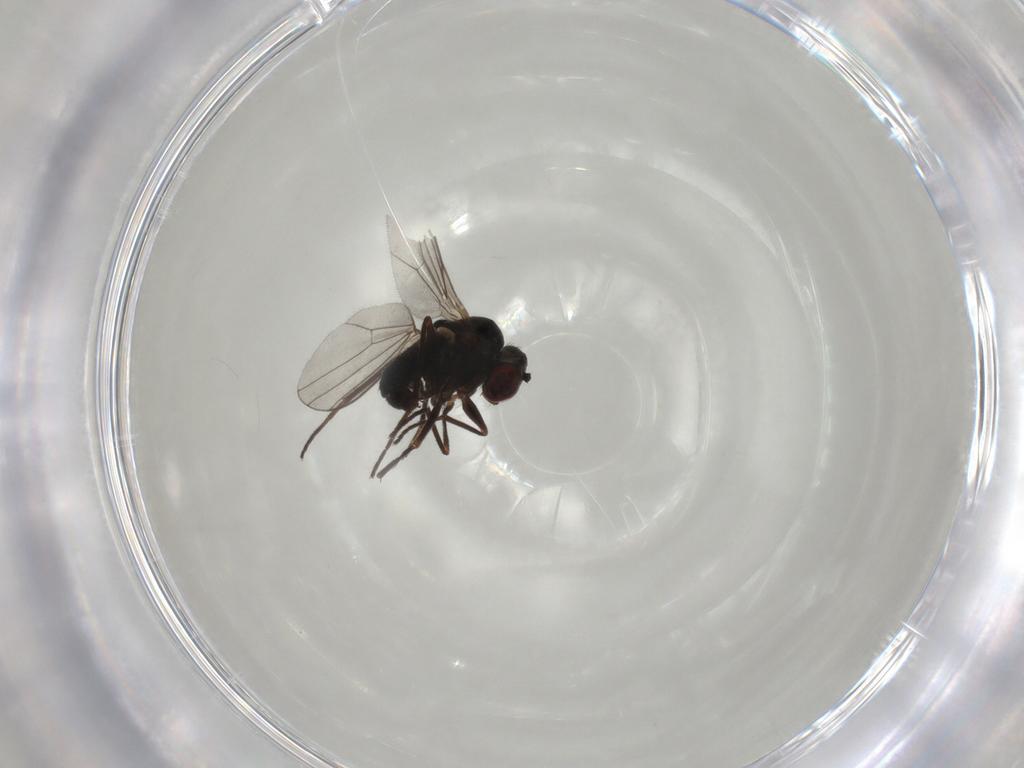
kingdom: Animalia
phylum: Arthropoda
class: Insecta
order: Diptera
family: Dolichopodidae
